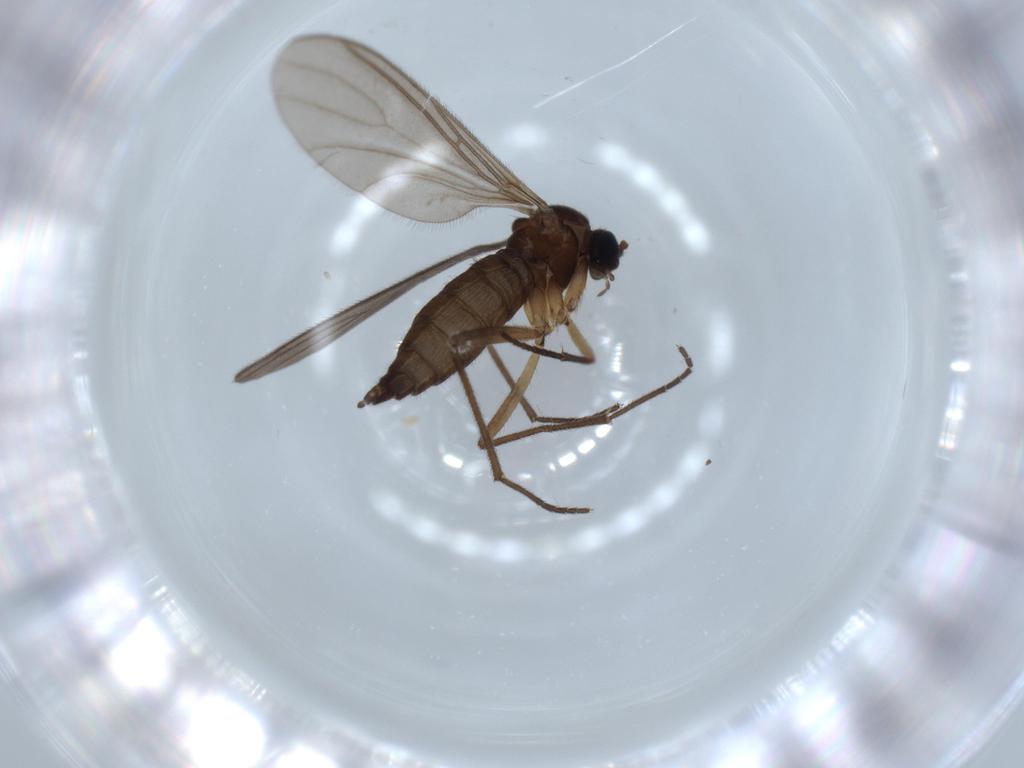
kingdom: Animalia
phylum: Arthropoda
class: Insecta
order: Diptera
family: Sciaridae
